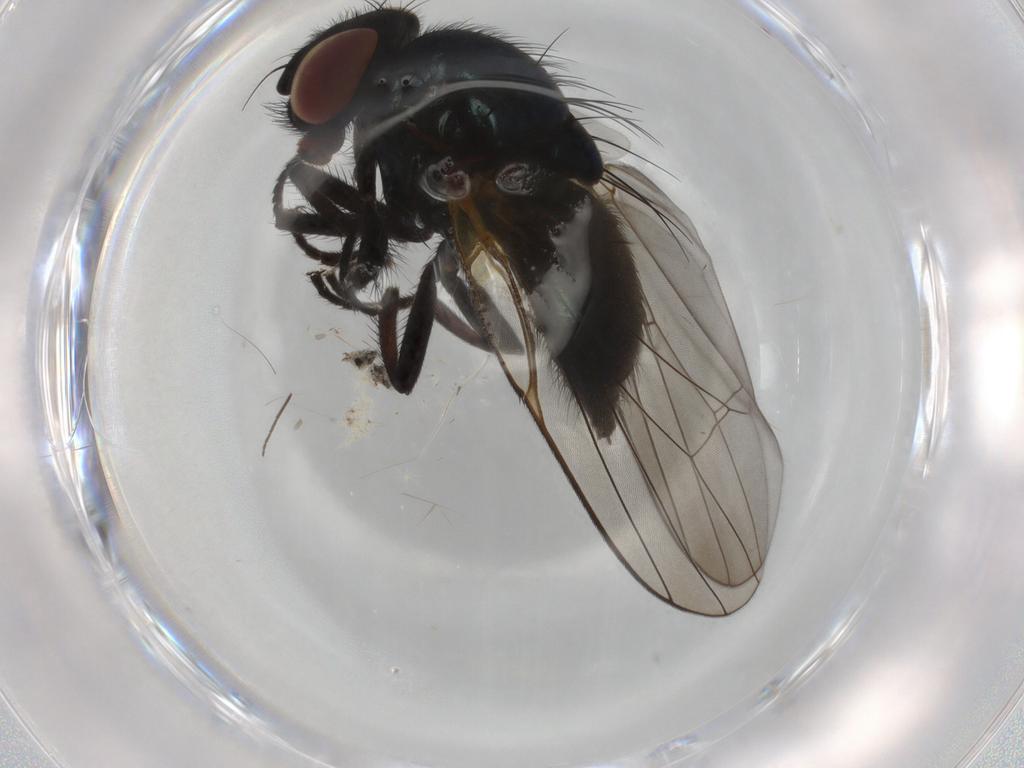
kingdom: Animalia
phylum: Arthropoda
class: Insecta
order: Diptera
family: Lonchaeidae
